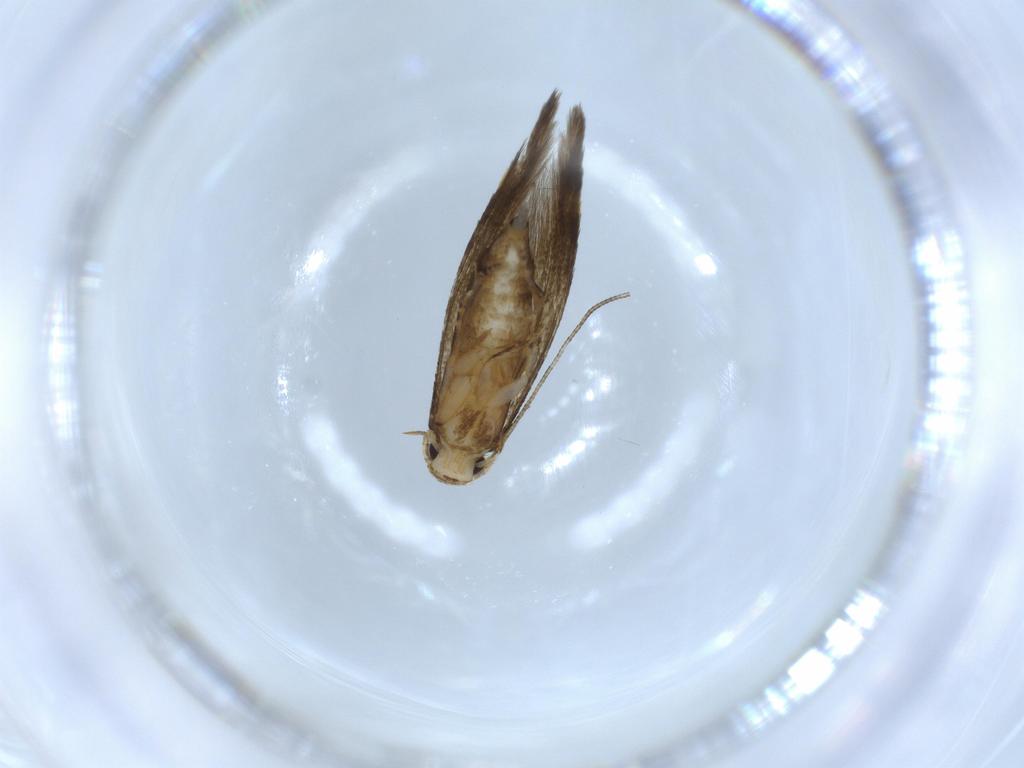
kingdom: Animalia
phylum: Arthropoda
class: Insecta
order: Lepidoptera
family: Tineidae
